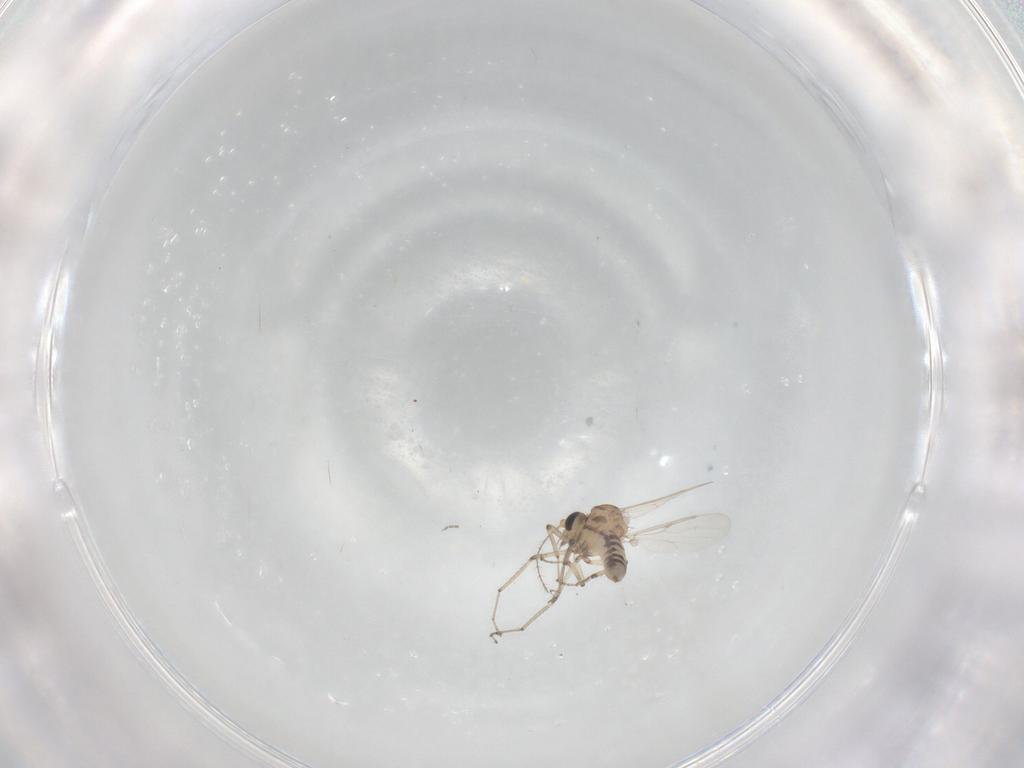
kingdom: Animalia
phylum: Arthropoda
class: Insecta
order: Diptera
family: Ceratopogonidae
